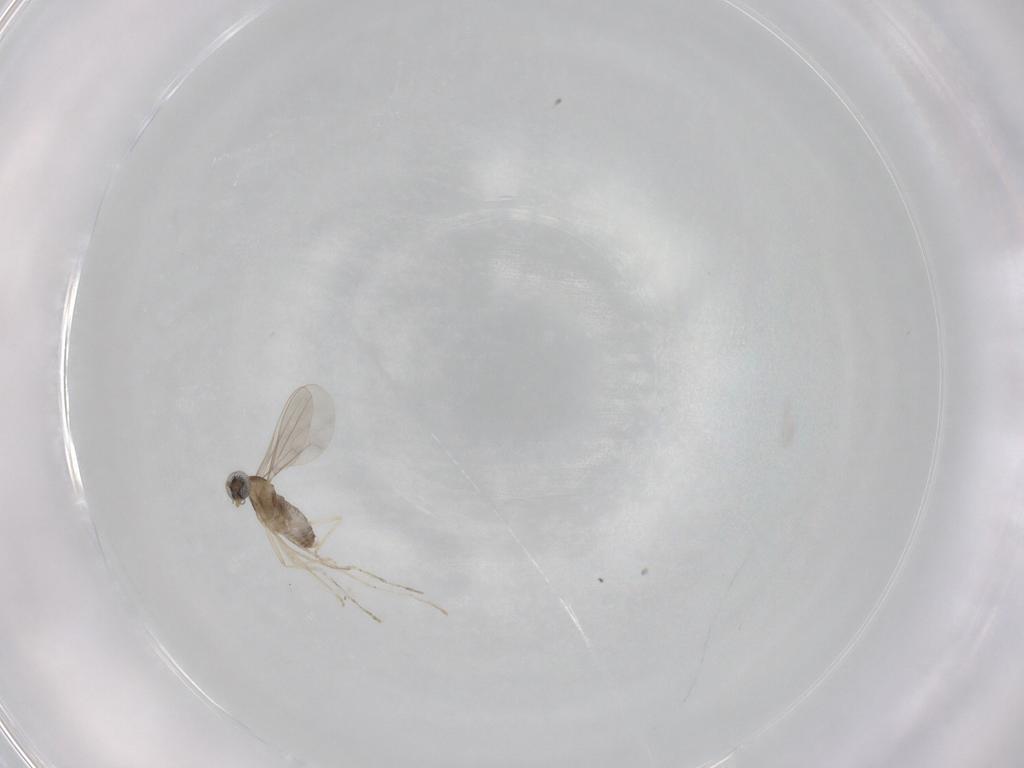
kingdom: Animalia
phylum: Arthropoda
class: Insecta
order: Diptera
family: Cecidomyiidae
